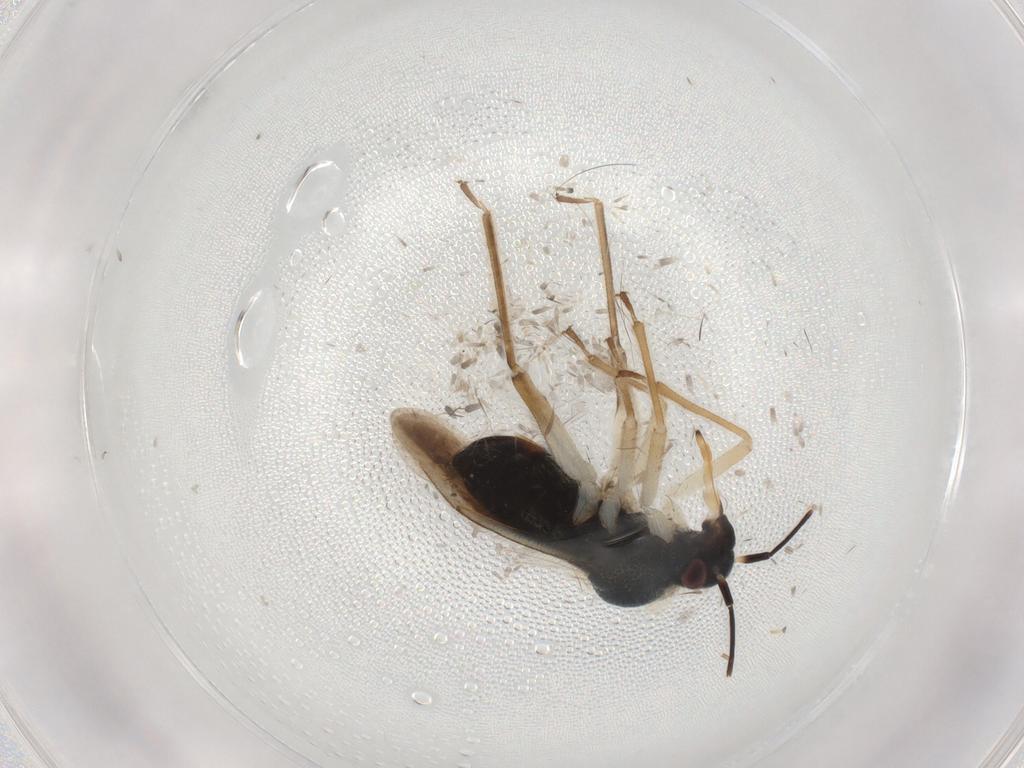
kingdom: Animalia
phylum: Arthropoda
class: Insecta
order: Hemiptera
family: Miridae
